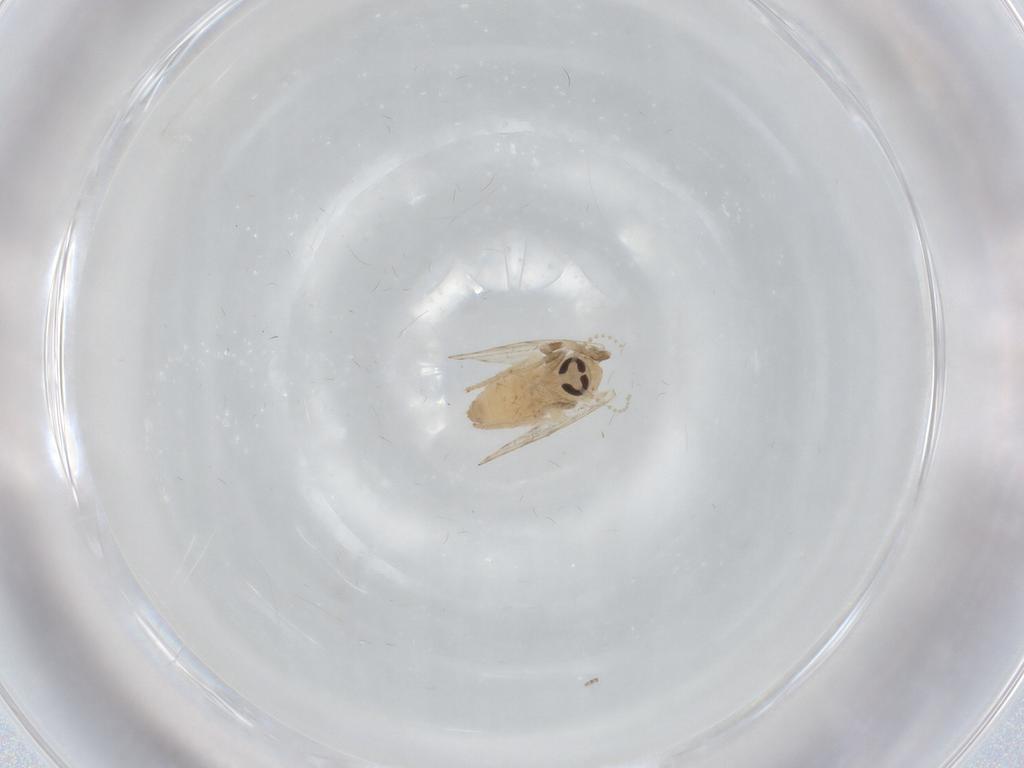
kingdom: Animalia
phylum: Arthropoda
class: Insecta
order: Diptera
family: Psychodidae
